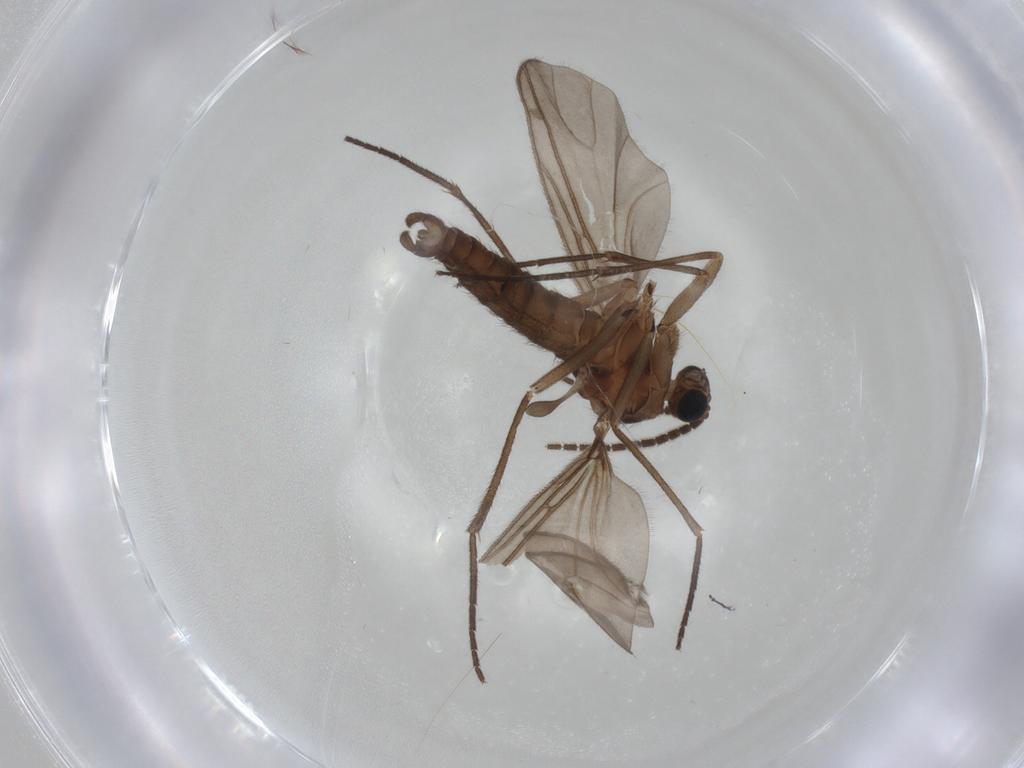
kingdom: Animalia
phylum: Arthropoda
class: Insecta
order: Diptera
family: Sciaridae
